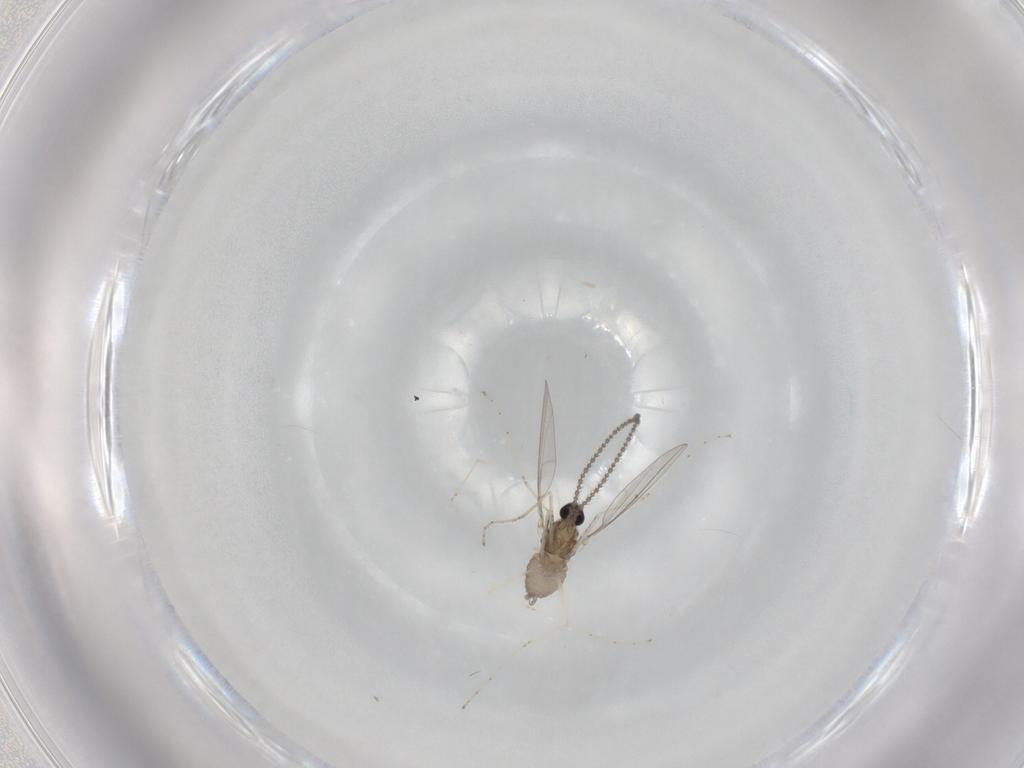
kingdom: Animalia
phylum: Arthropoda
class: Insecta
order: Diptera
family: Cecidomyiidae
